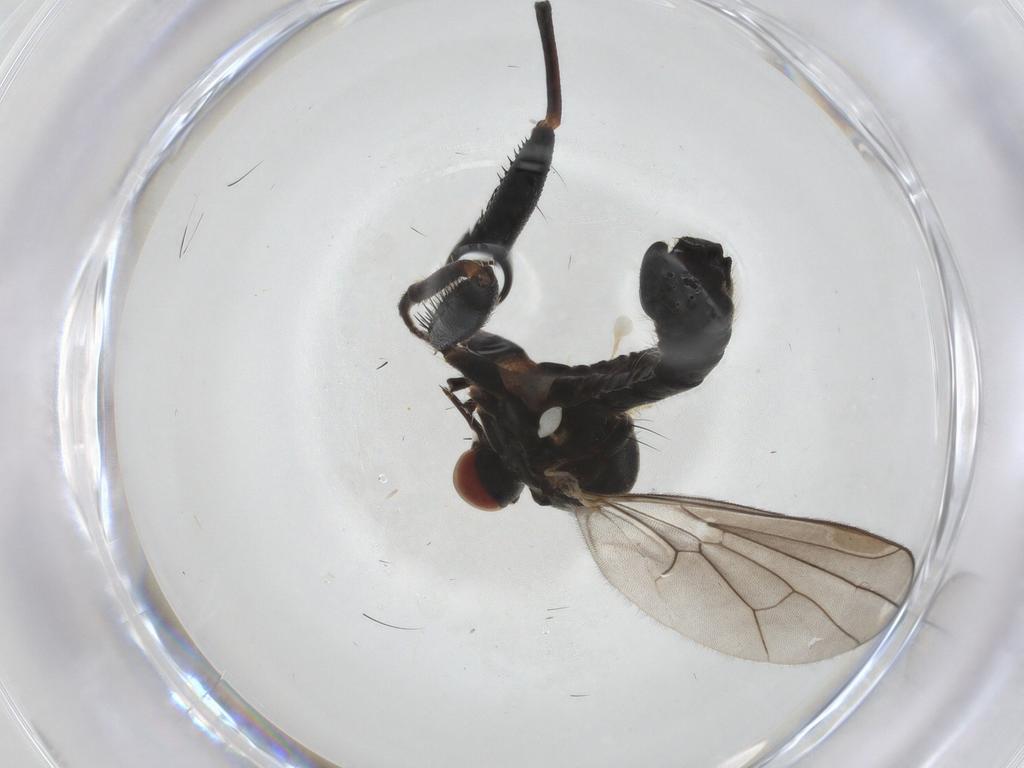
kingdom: Animalia
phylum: Arthropoda
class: Insecta
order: Diptera
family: Hybotidae
